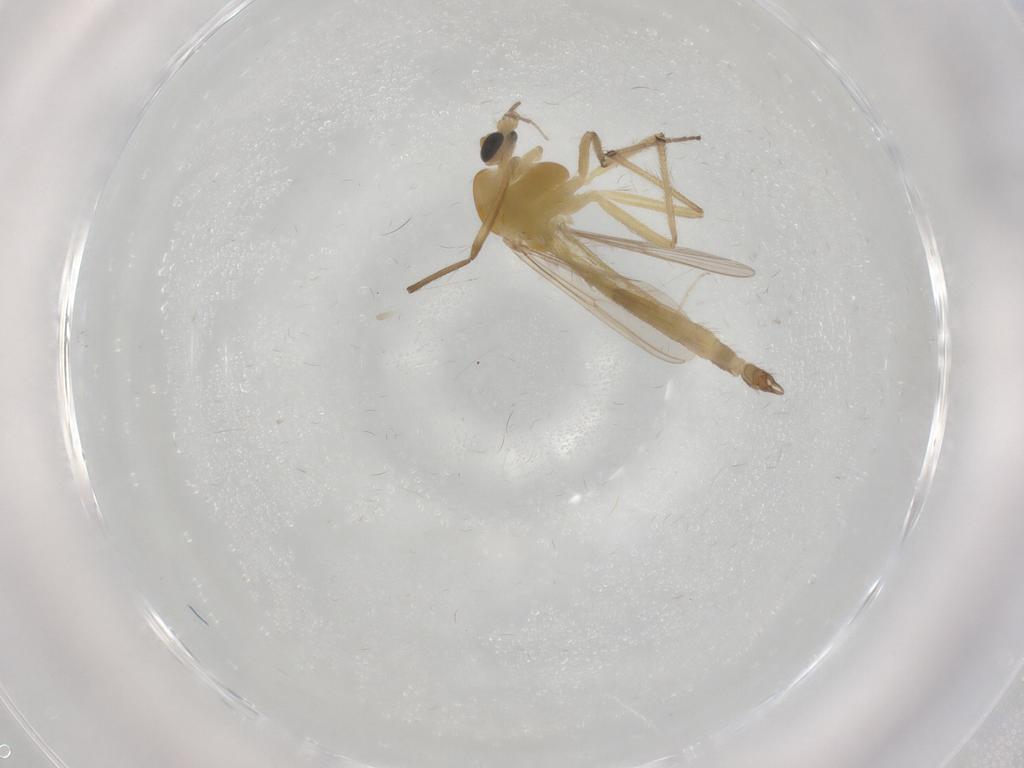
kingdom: Animalia
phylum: Arthropoda
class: Insecta
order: Diptera
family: Chironomidae
